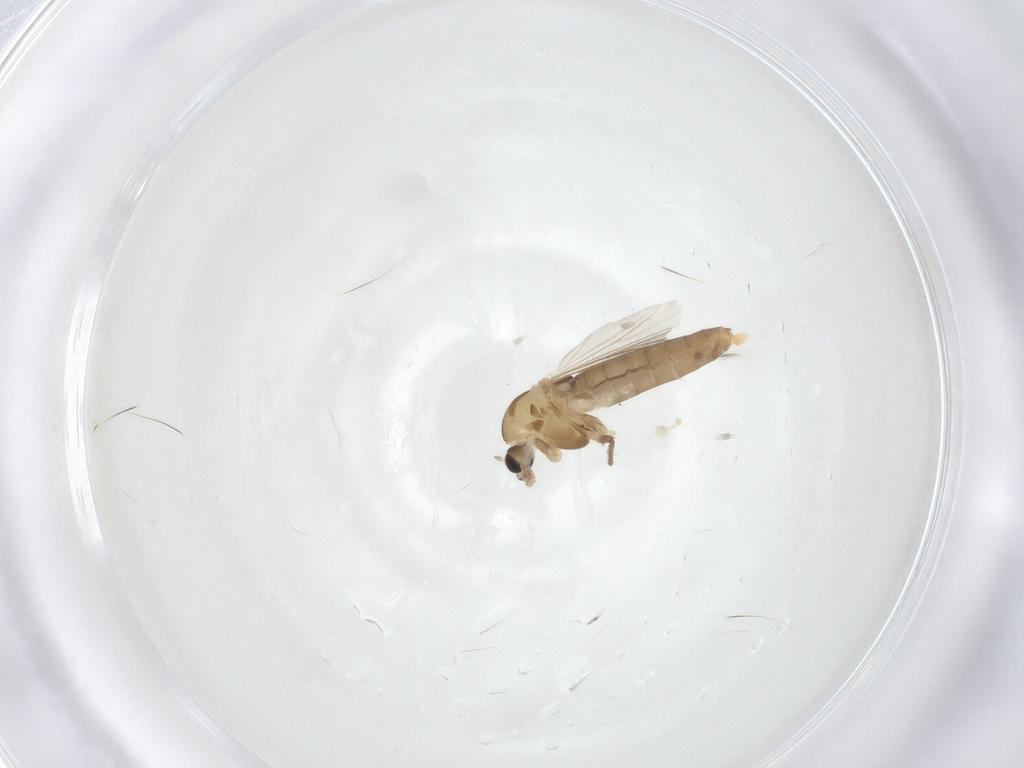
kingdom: Animalia
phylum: Arthropoda
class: Insecta
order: Diptera
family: Chironomidae
